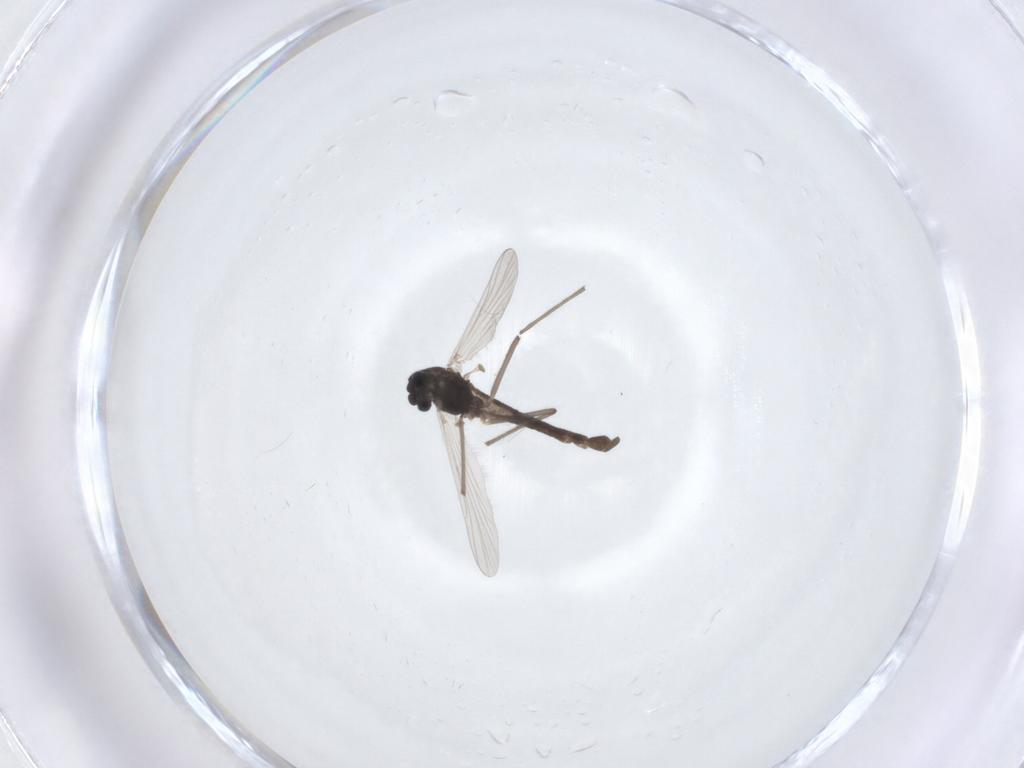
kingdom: Animalia
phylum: Arthropoda
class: Insecta
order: Diptera
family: Chironomidae
